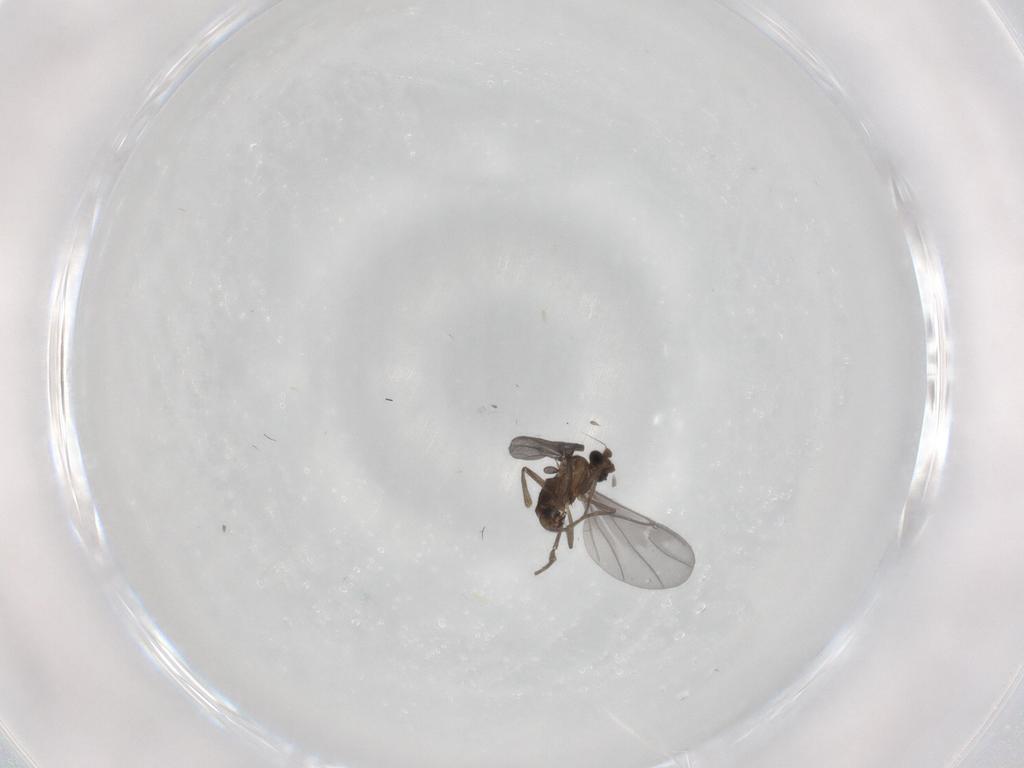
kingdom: Animalia
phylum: Arthropoda
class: Insecta
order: Diptera
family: Phoridae
